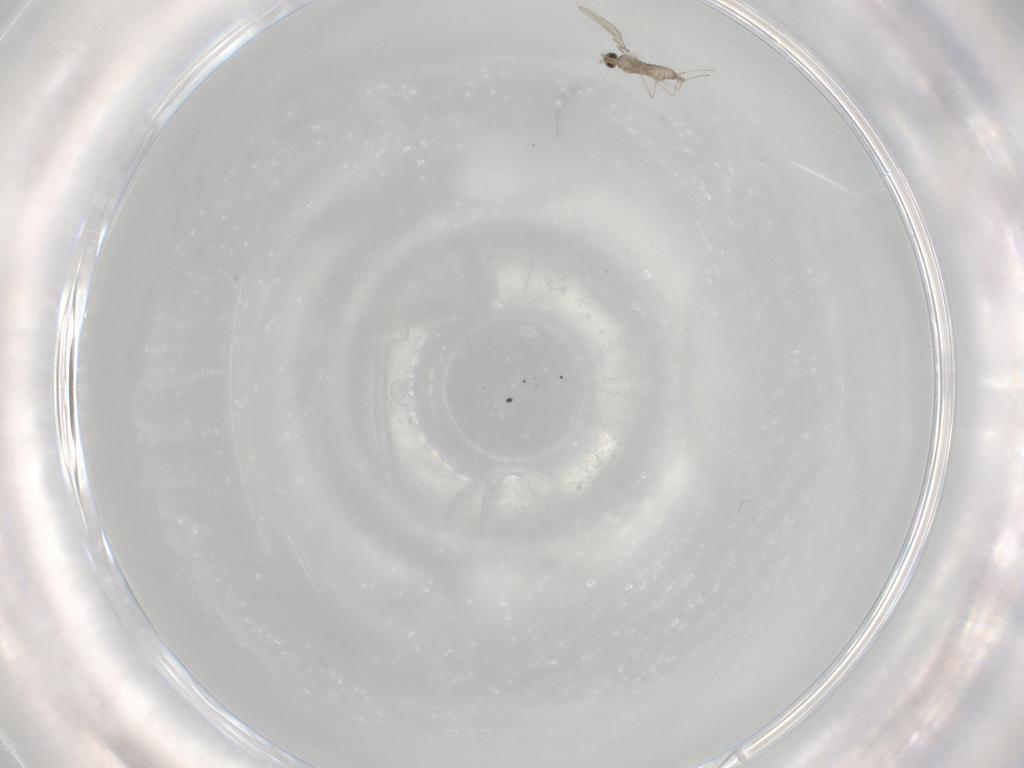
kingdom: Animalia
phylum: Arthropoda
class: Insecta
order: Diptera
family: Cecidomyiidae
